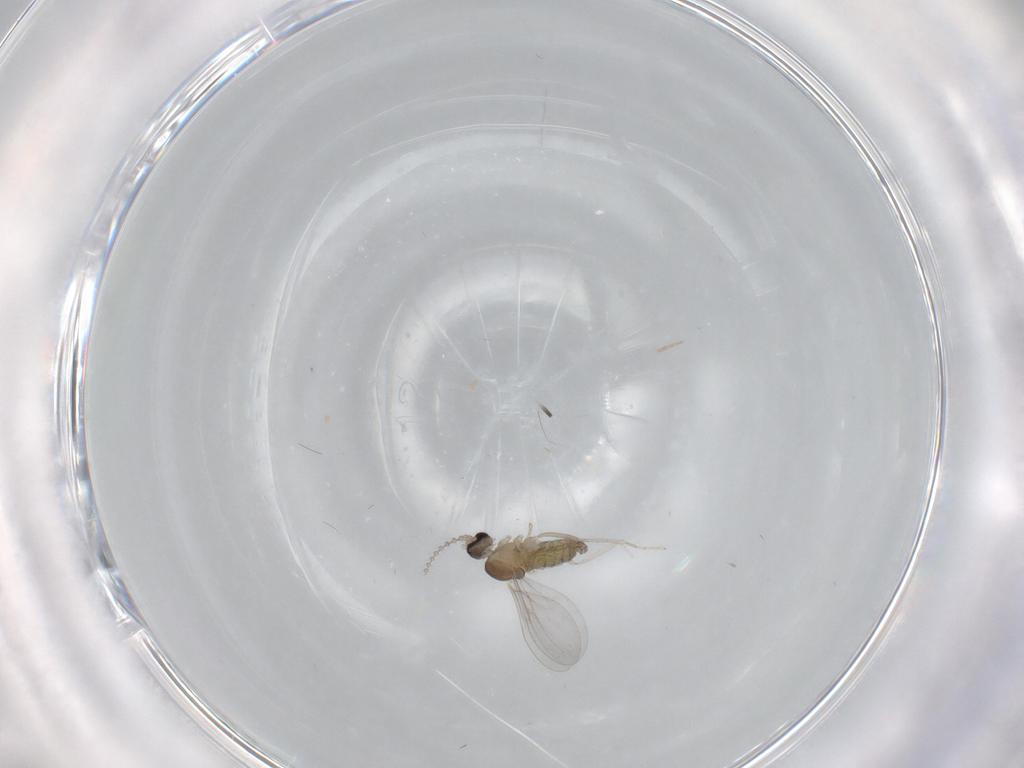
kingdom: Animalia
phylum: Arthropoda
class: Insecta
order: Diptera
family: Cecidomyiidae
